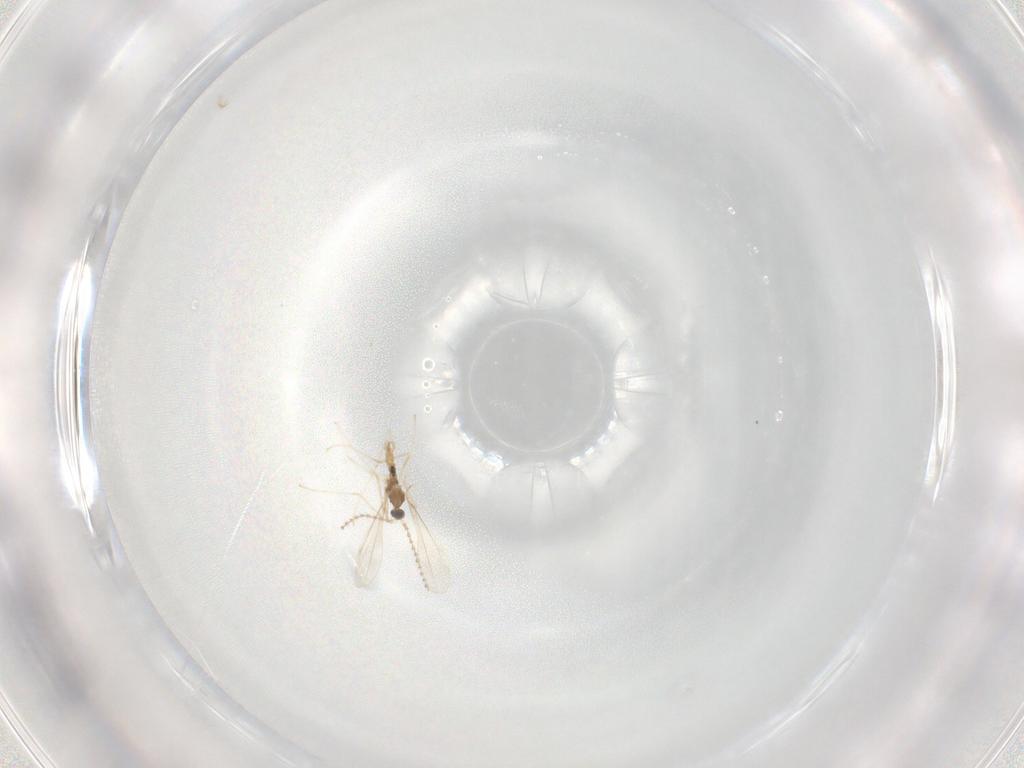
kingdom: Animalia
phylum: Arthropoda
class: Insecta
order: Diptera
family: Cecidomyiidae
